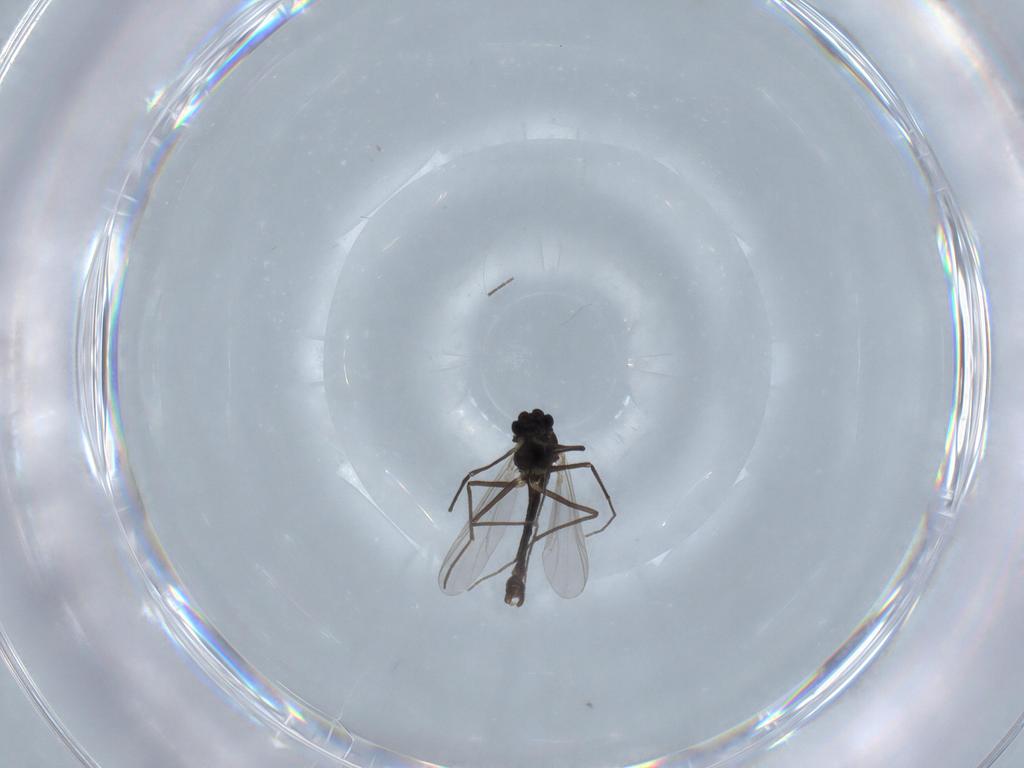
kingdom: Animalia
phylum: Arthropoda
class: Insecta
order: Diptera
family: Chironomidae
